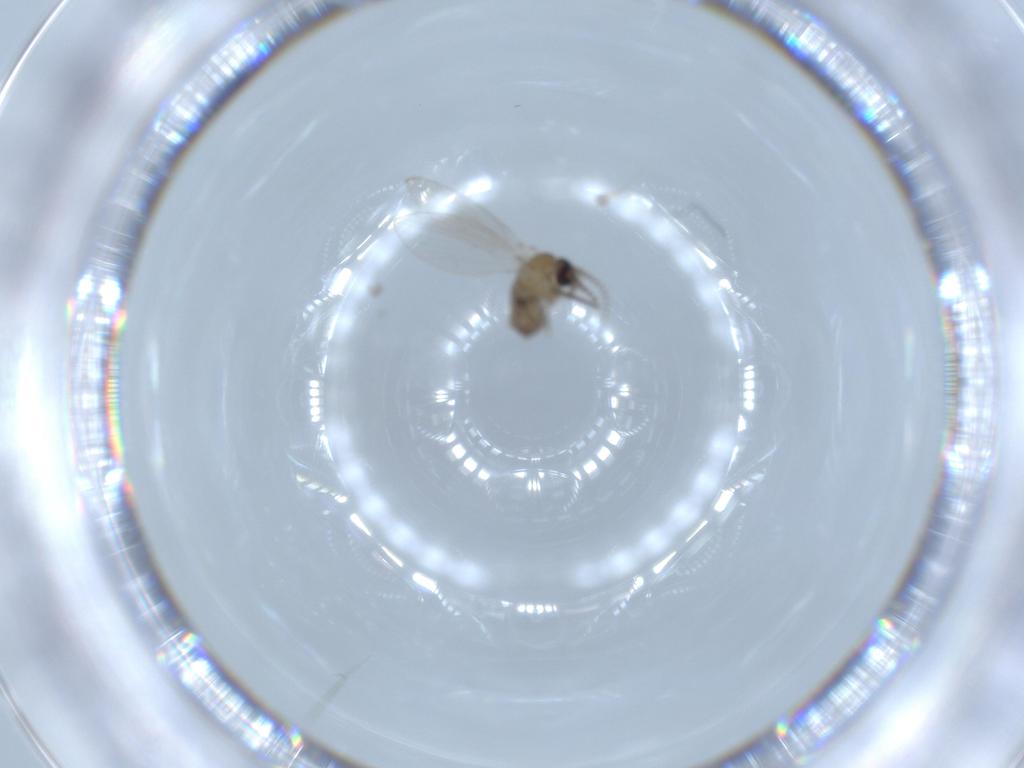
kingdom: Animalia
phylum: Arthropoda
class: Insecta
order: Diptera
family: Psychodidae
